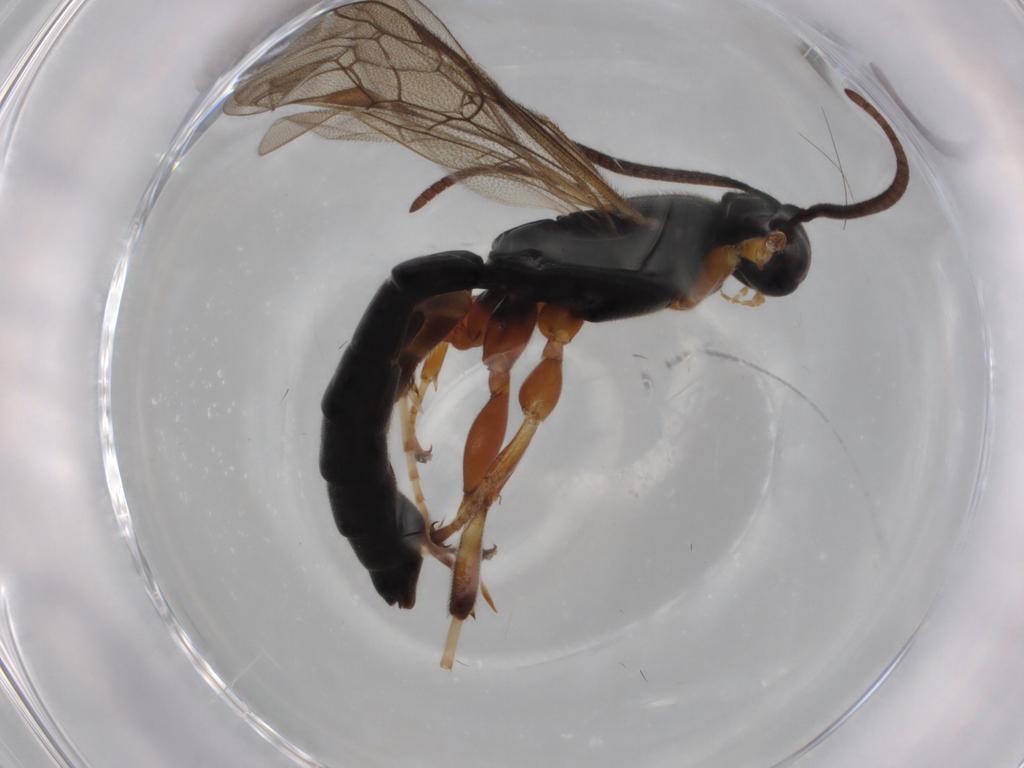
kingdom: Animalia
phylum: Arthropoda
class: Insecta
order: Hymenoptera
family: Ichneumonidae
